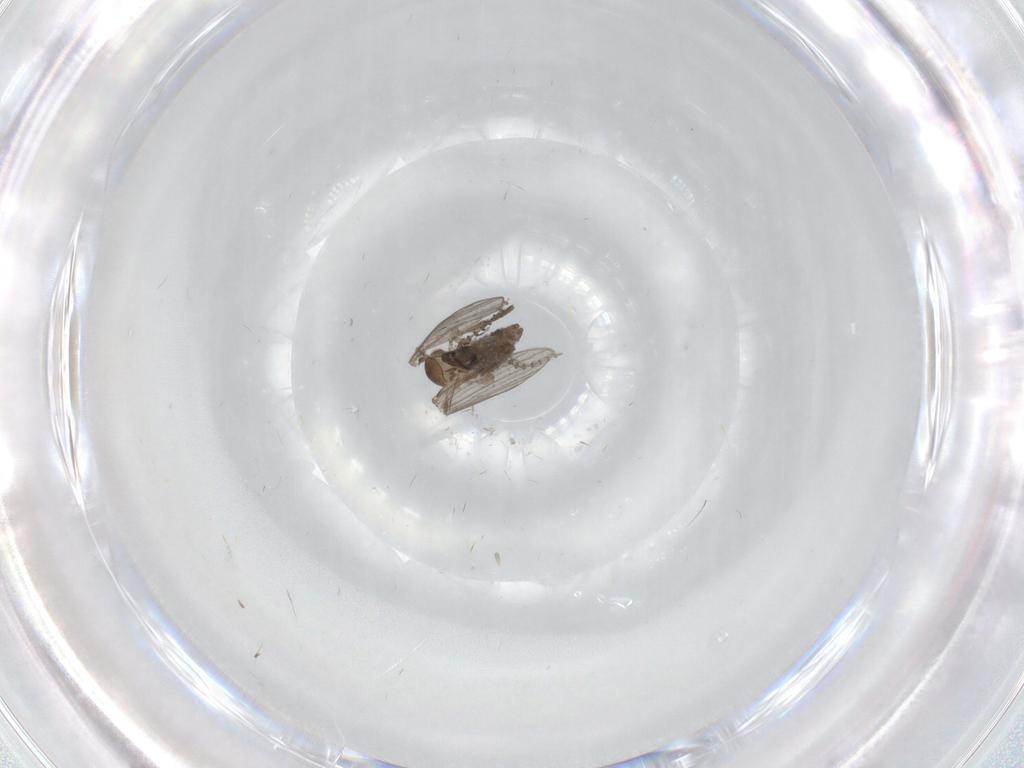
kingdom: Animalia
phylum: Arthropoda
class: Insecta
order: Diptera
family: Psychodidae
